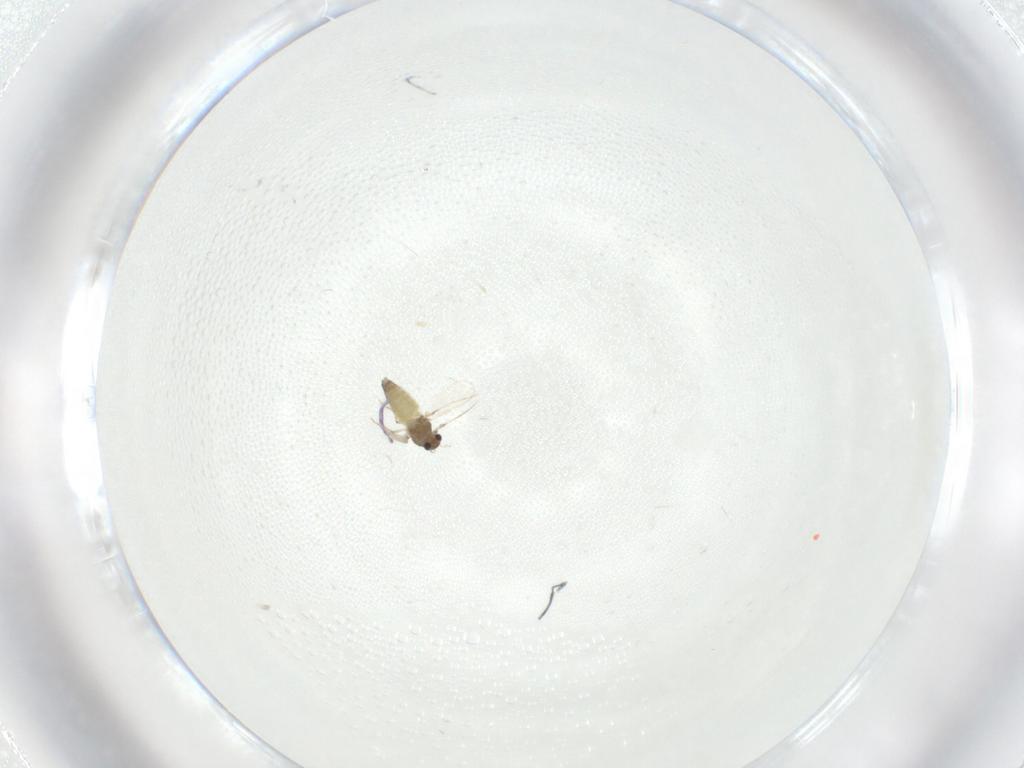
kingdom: Animalia
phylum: Arthropoda
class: Insecta
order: Diptera
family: Chironomidae
